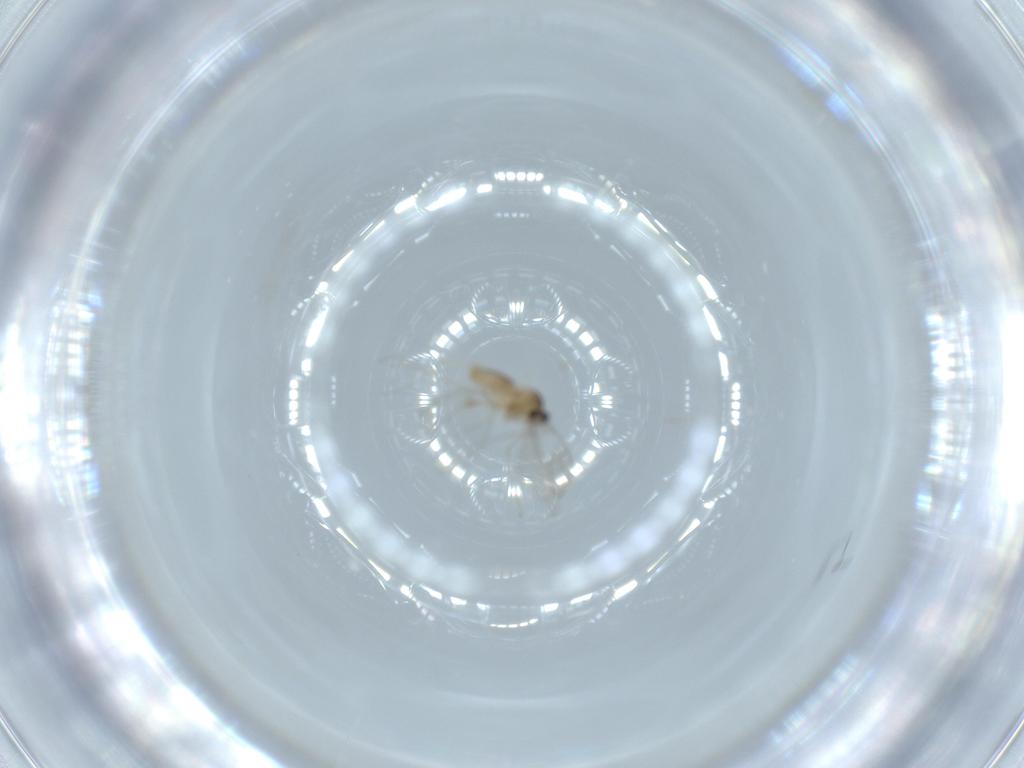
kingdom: Animalia
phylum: Arthropoda
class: Insecta
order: Diptera
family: Cecidomyiidae
